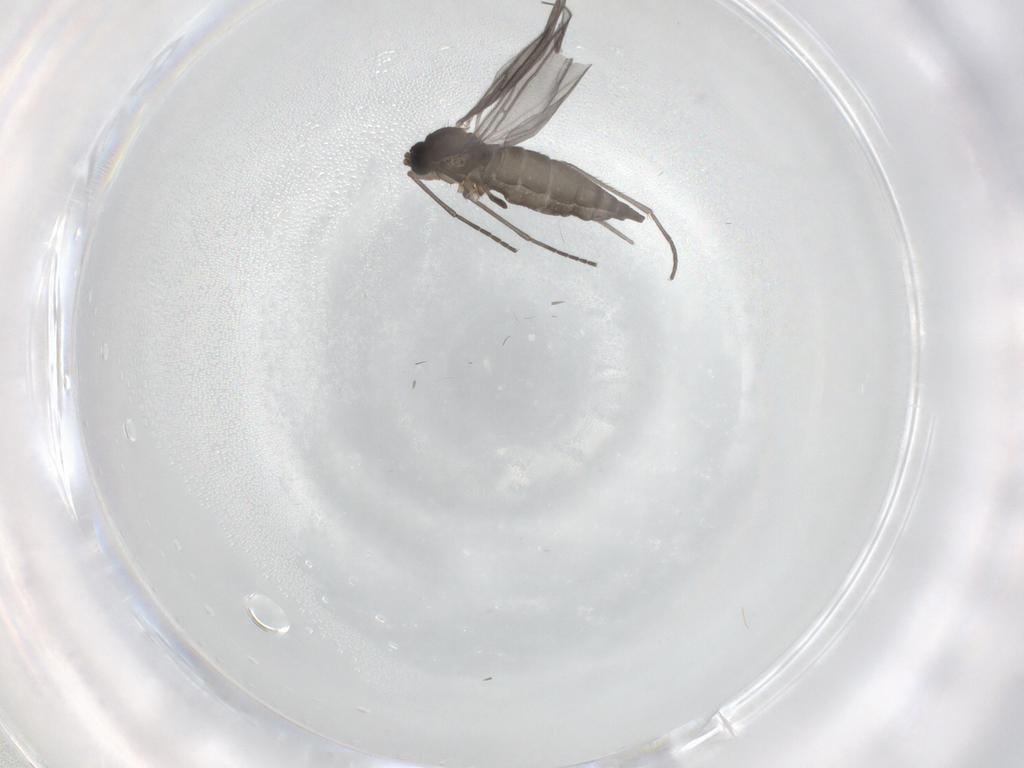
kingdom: Animalia
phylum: Arthropoda
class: Insecta
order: Diptera
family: Sciaridae
